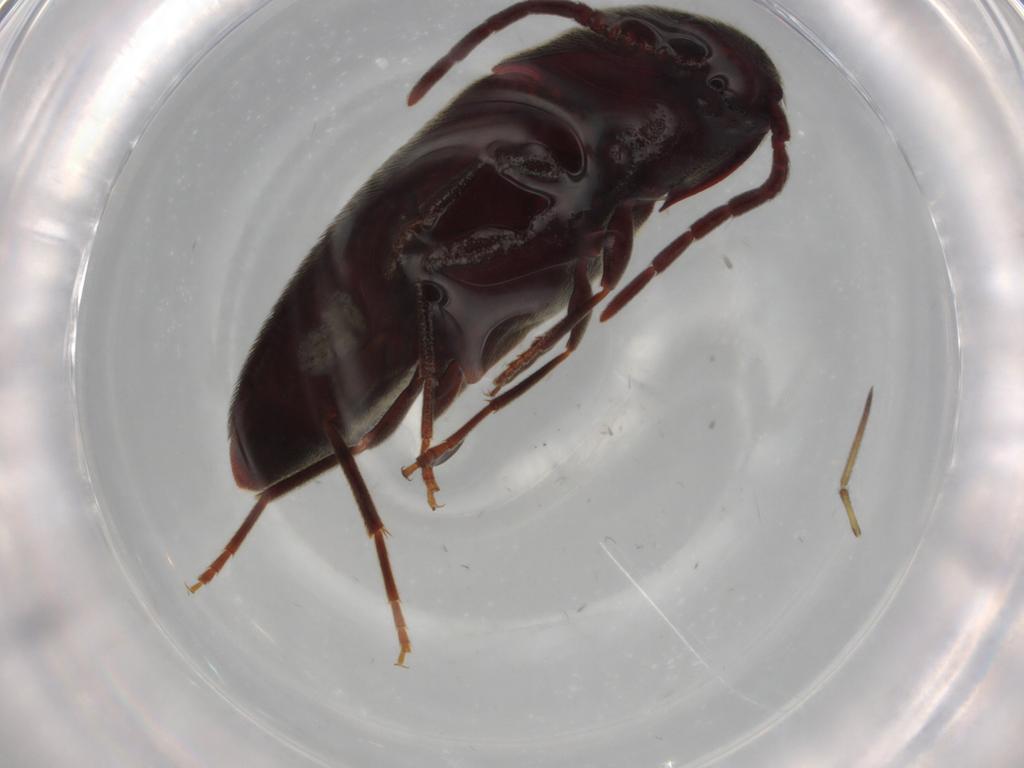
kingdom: Animalia
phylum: Arthropoda
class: Insecta
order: Coleoptera
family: Eucnemidae
